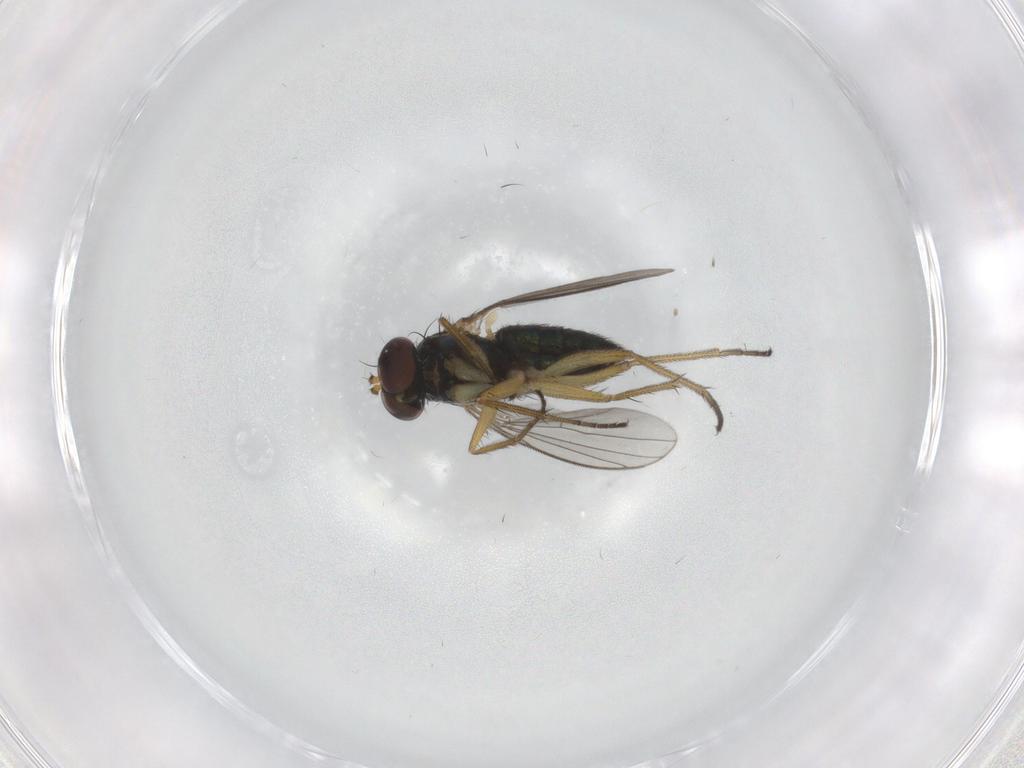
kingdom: Animalia
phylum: Arthropoda
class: Insecta
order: Diptera
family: Dolichopodidae
